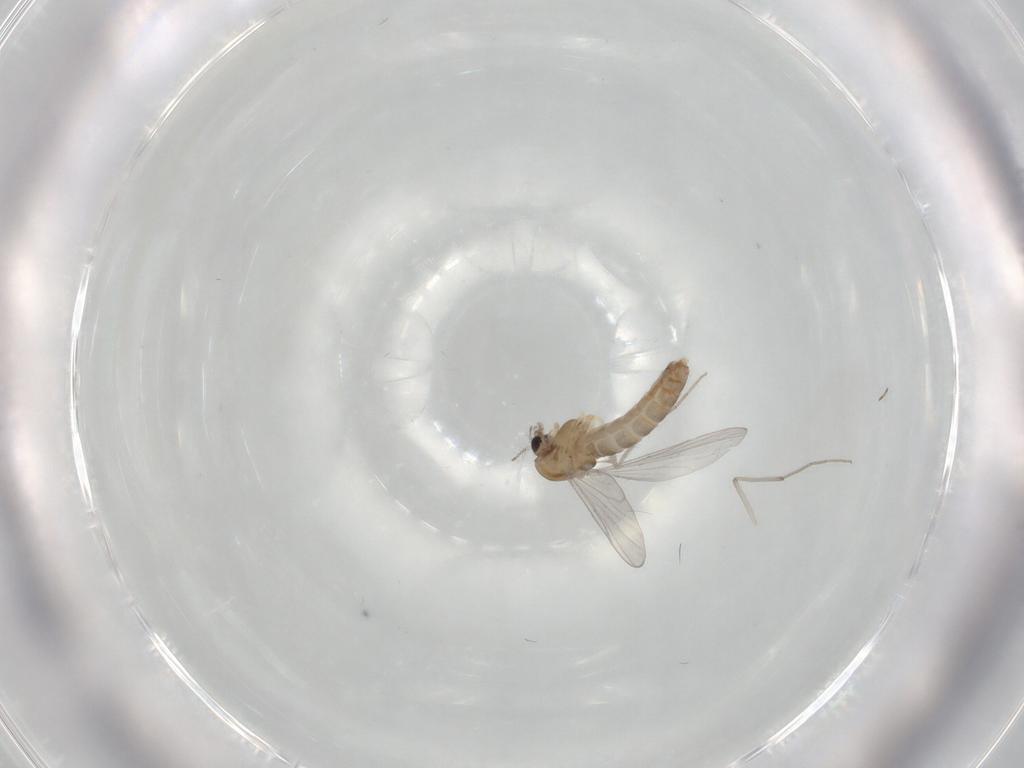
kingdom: Animalia
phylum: Arthropoda
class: Insecta
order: Diptera
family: Chironomidae
